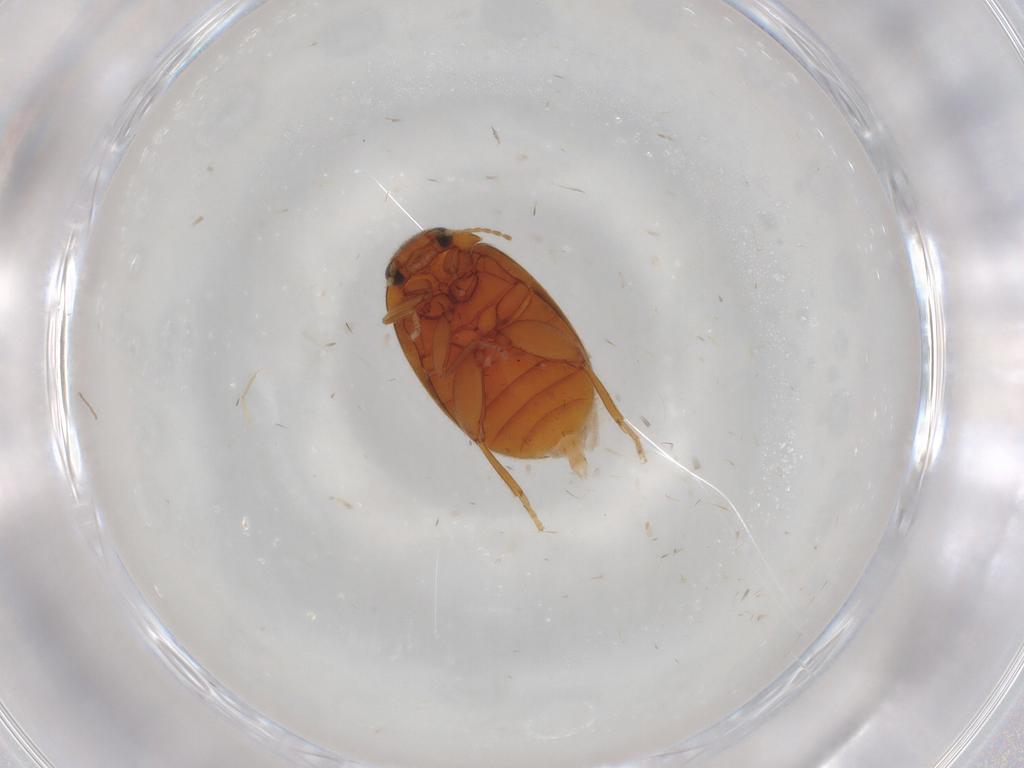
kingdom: Animalia
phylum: Arthropoda
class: Insecta
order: Coleoptera
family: Scirtidae
